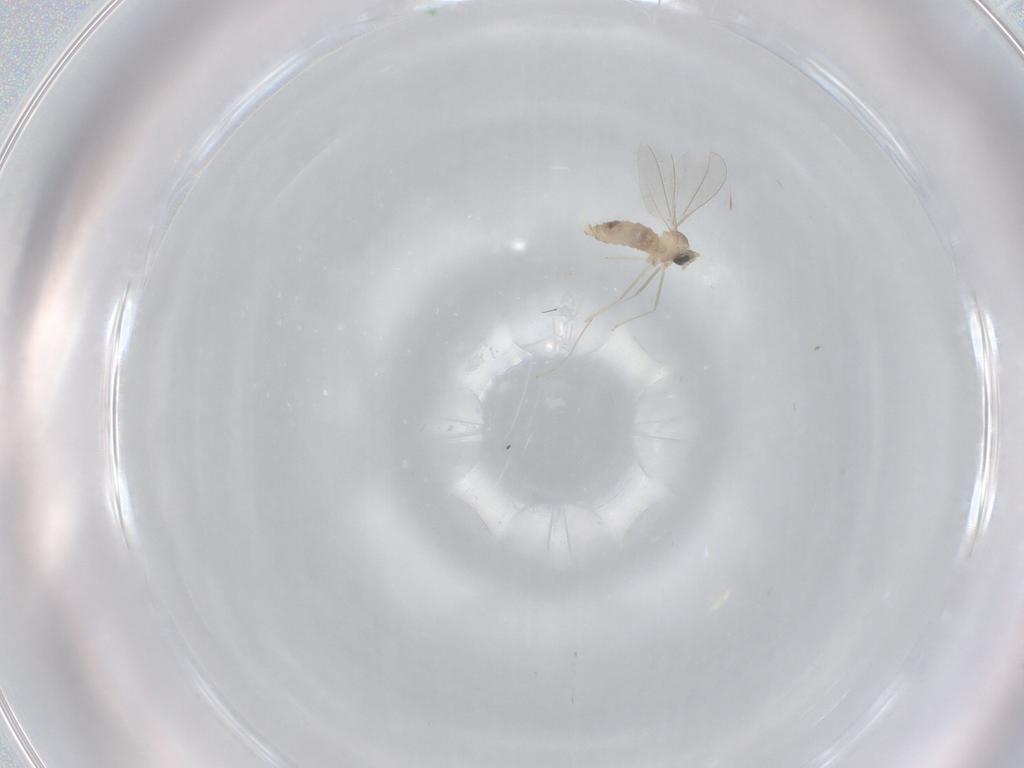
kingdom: Animalia
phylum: Arthropoda
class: Insecta
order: Diptera
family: Cecidomyiidae
